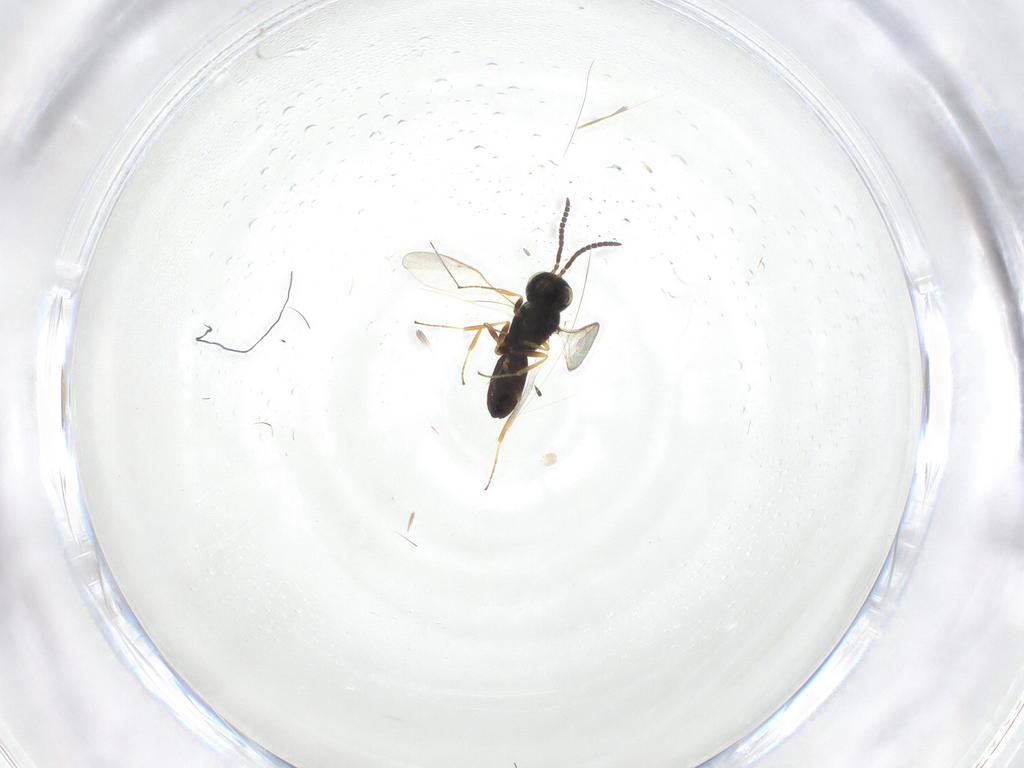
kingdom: Animalia
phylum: Arthropoda
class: Insecta
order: Hymenoptera
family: Scelionidae
